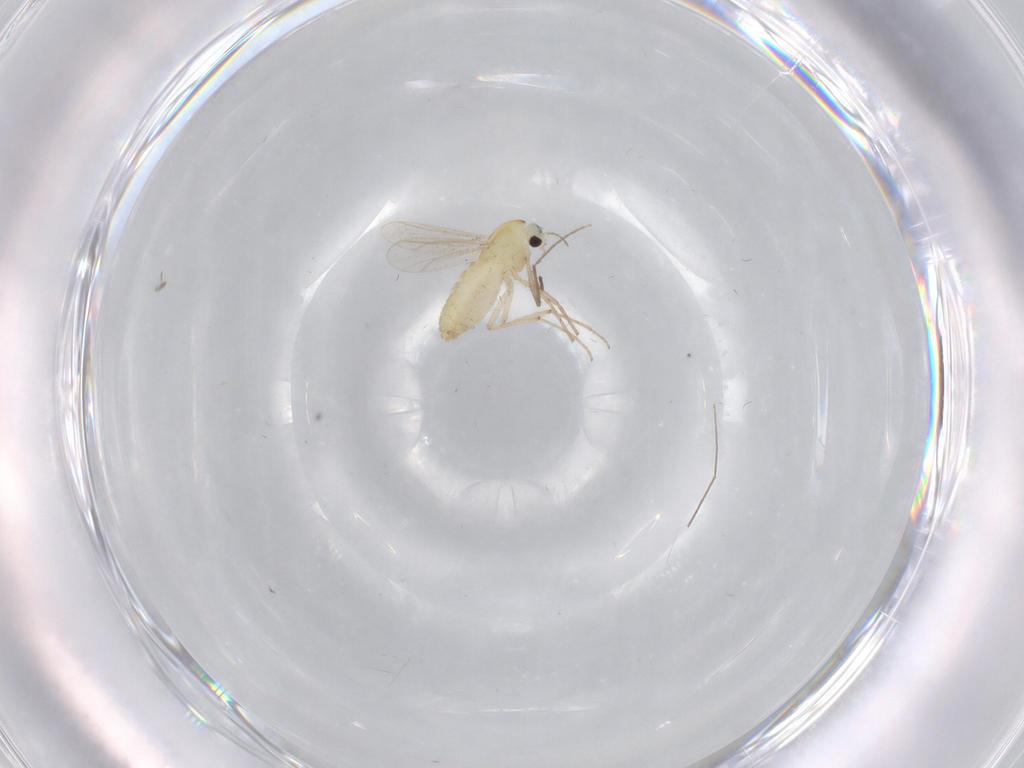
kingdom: Animalia
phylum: Arthropoda
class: Insecta
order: Diptera
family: Chironomidae
